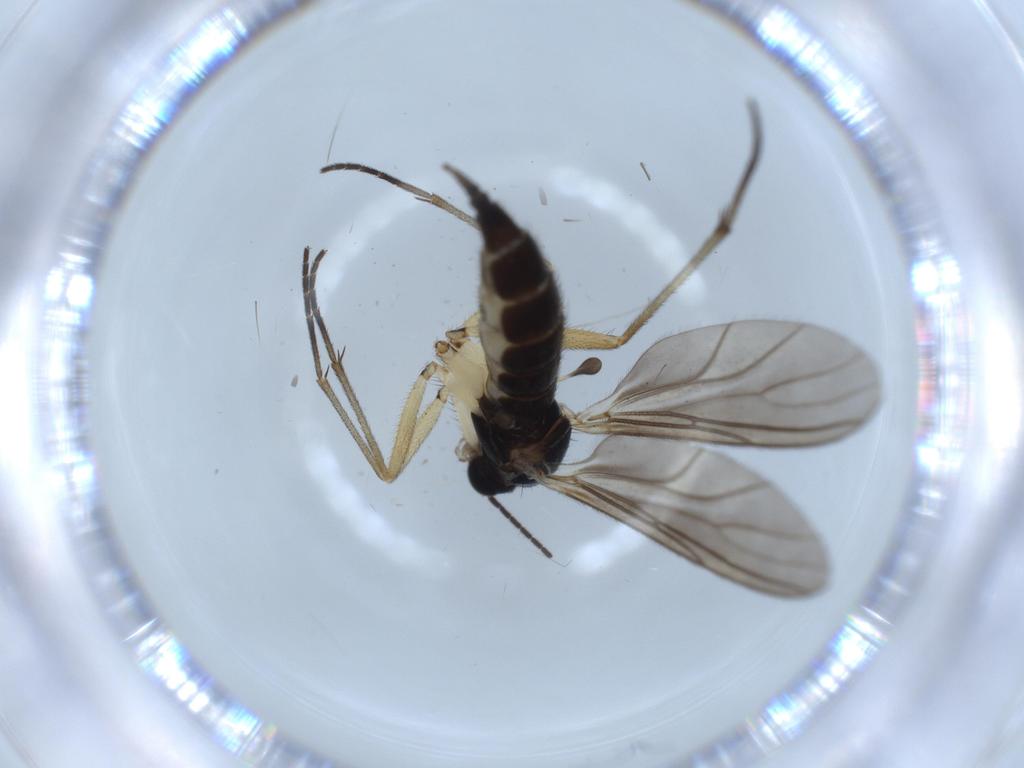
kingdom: Animalia
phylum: Arthropoda
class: Insecta
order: Diptera
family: Sciaridae
